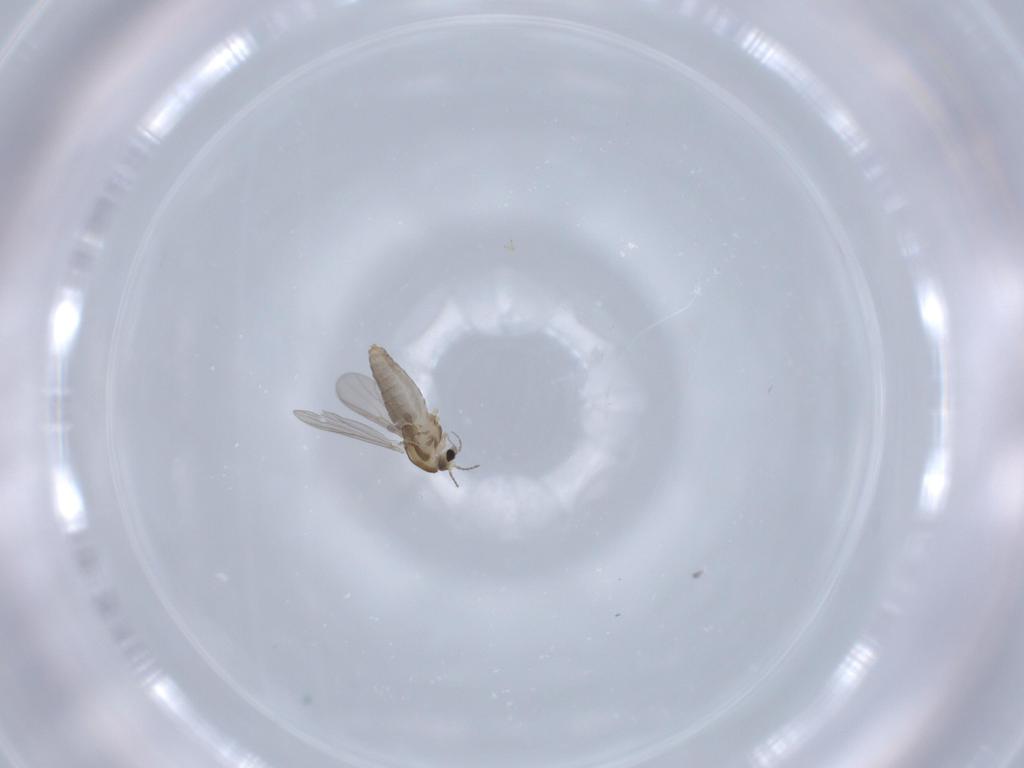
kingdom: Animalia
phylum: Arthropoda
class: Insecta
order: Diptera
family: Chironomidae
